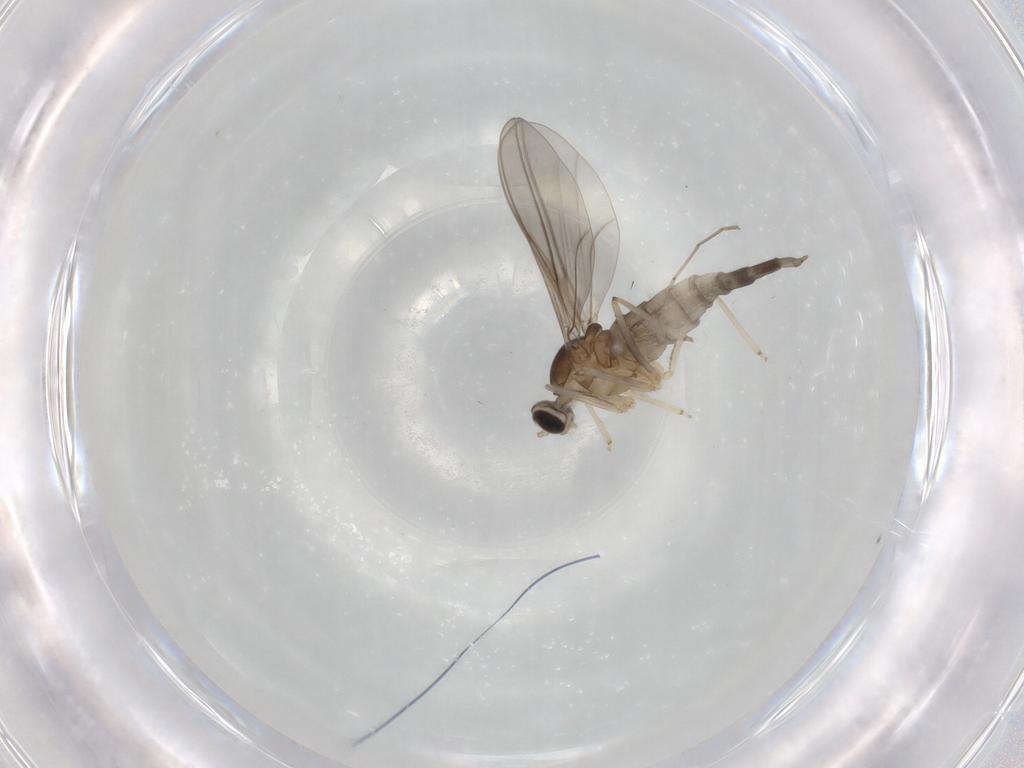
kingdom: Animalia
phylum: Arthropoda
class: Insecta
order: Diptera
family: Cecidomyiidae
